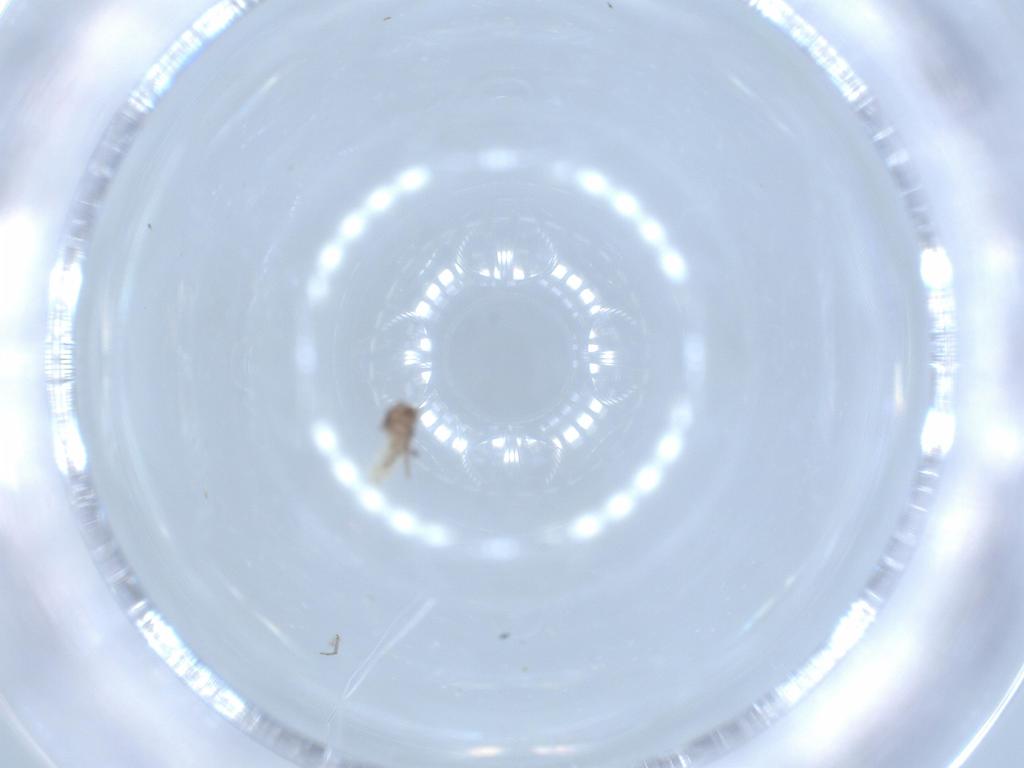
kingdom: Animalia
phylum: Arthropoda
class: Insecta
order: Psocodea
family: Lepidopsocidae
